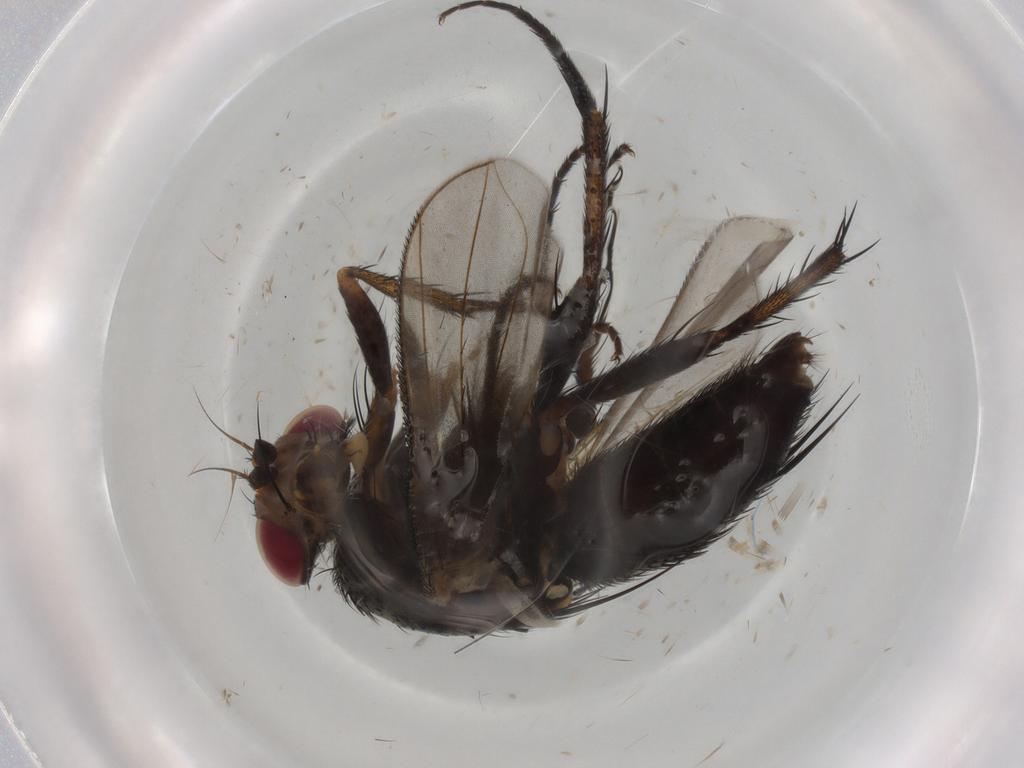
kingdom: Animalia
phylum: Arthropoda
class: Insecta
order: Diptera
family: Tachinidae
